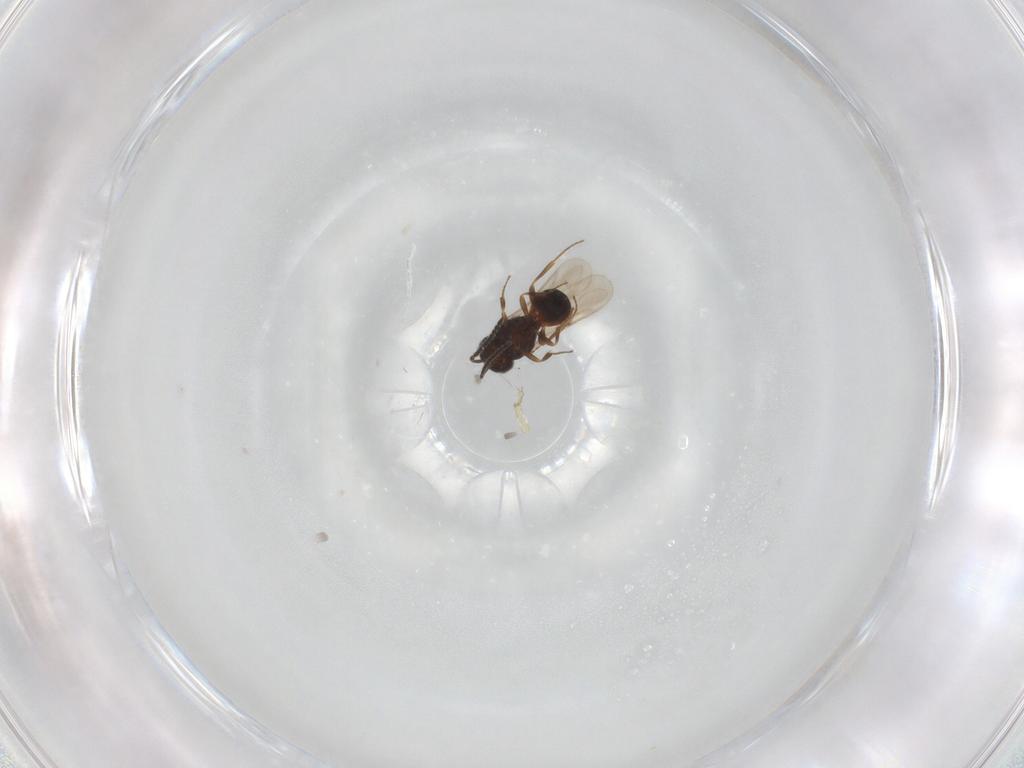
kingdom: Animalia
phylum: Arthropoda
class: Insecta
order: Hymenoptera
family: Scelionidae
